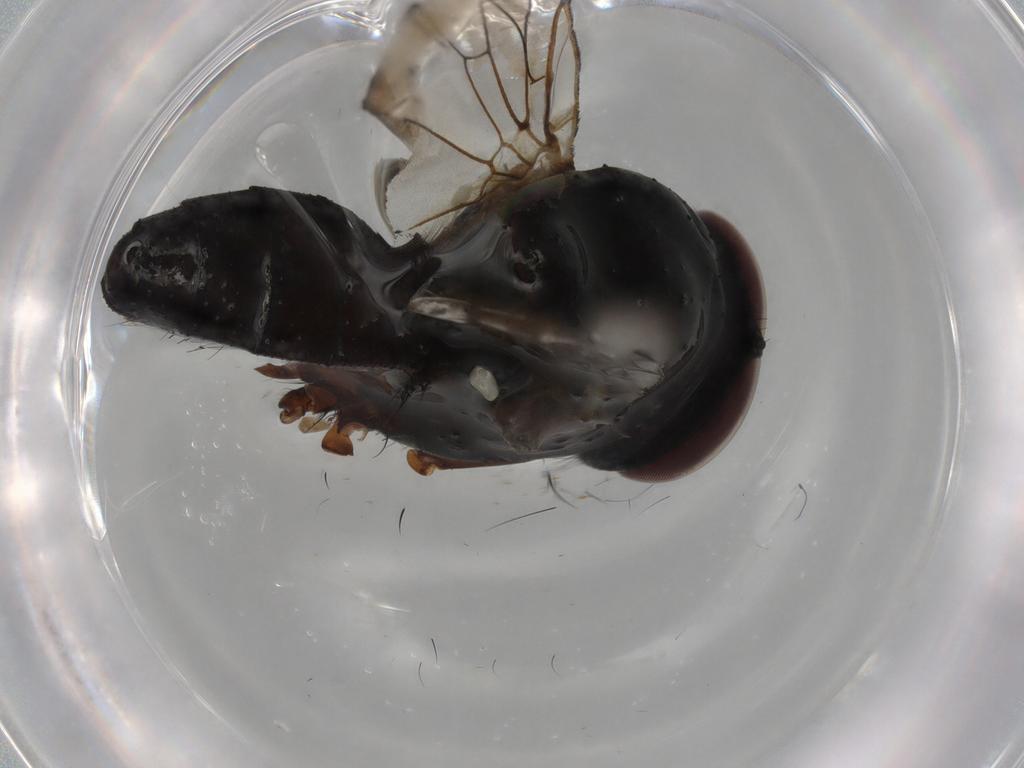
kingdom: Animalia
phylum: Arthropoda
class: Insecta
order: Diptera
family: Anthomyiidae
